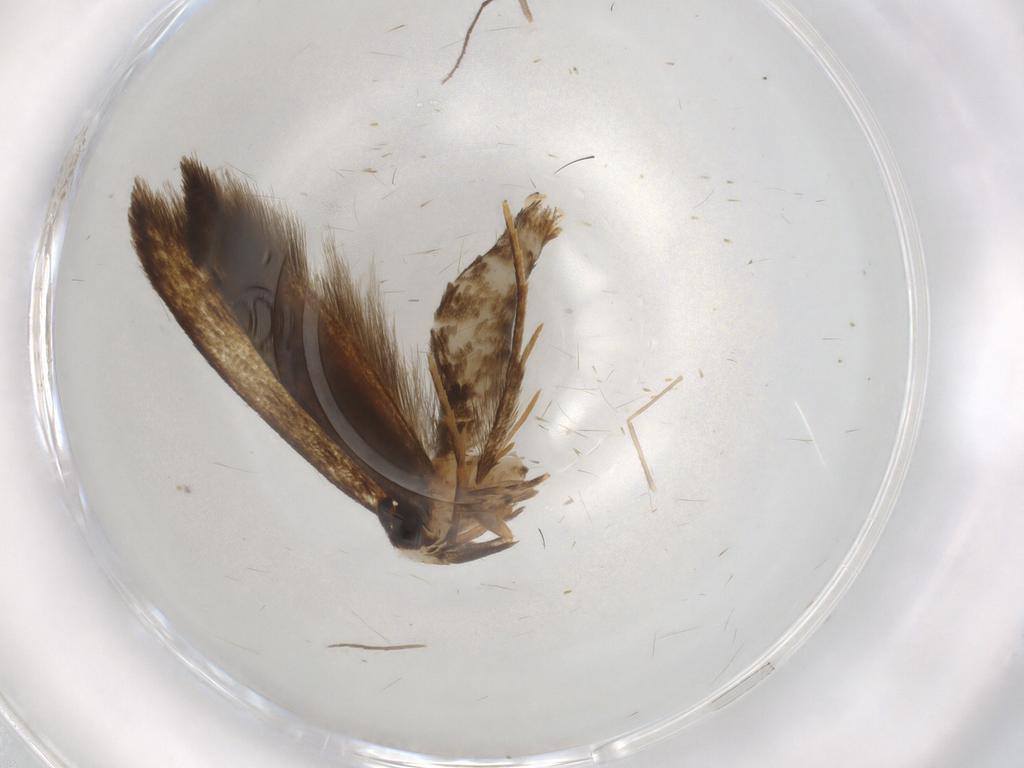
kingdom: Animalia
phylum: Arthropoda
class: Insecta
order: Lepidoptera
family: Tineidae
